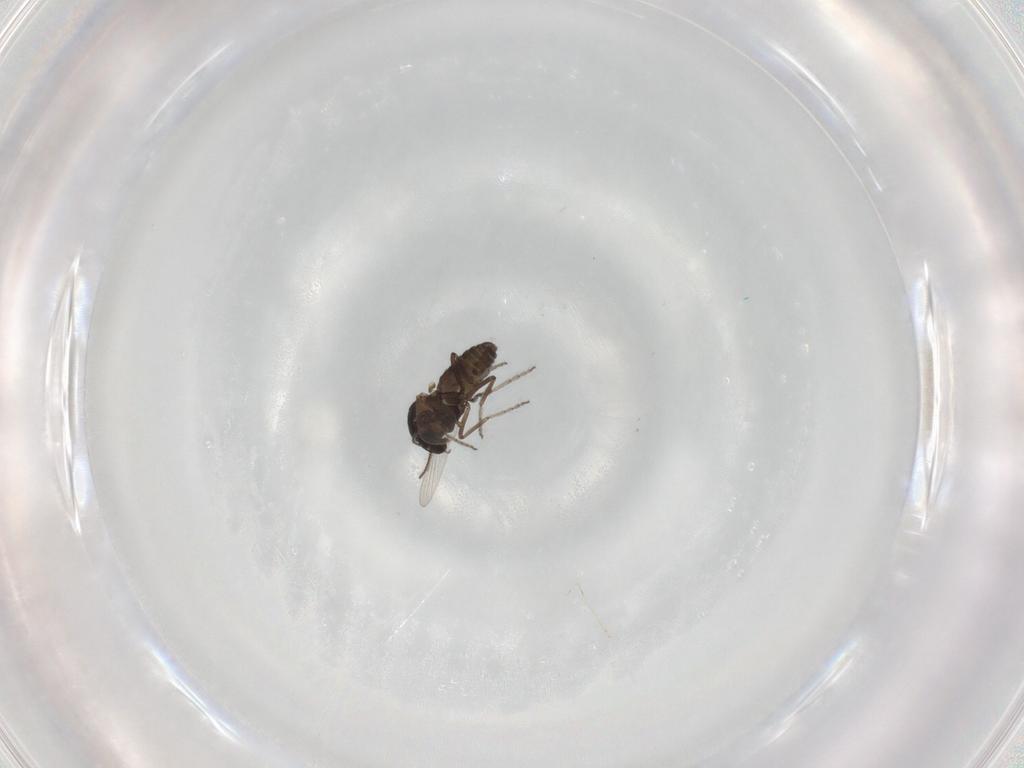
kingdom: Animalia
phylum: Arthropoda
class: Insecta
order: Diptera
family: Ceratopogonidae
